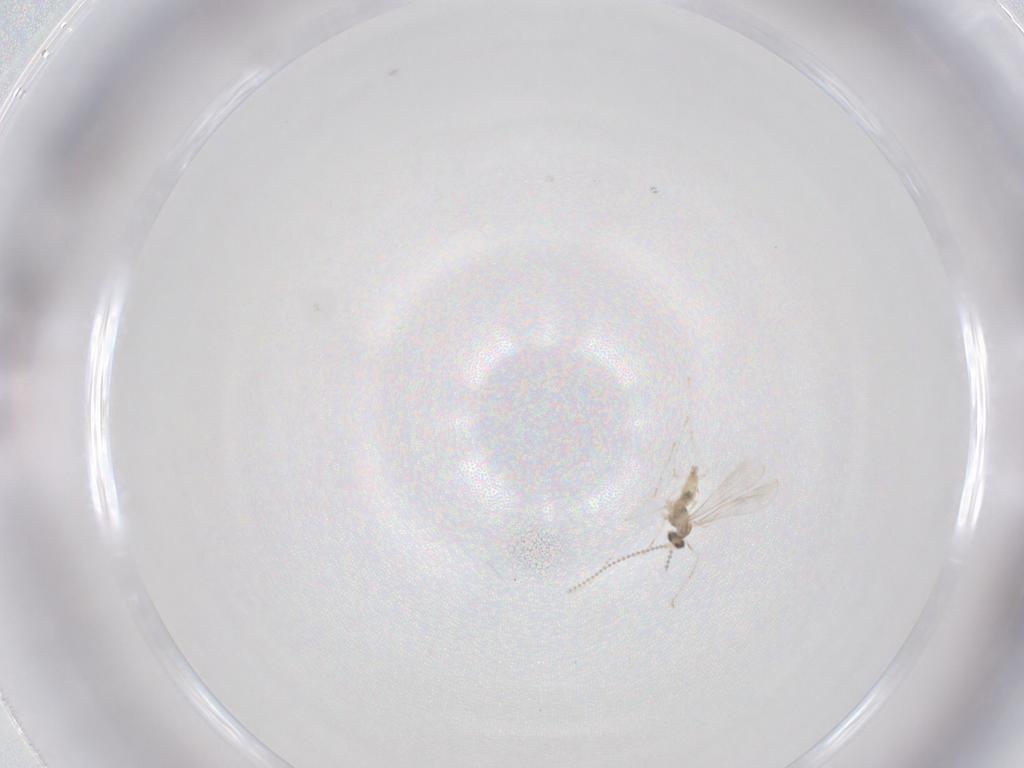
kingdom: Animalia
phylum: Arthropoda
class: Insecta
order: Diptera
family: Cecidomyiidae
